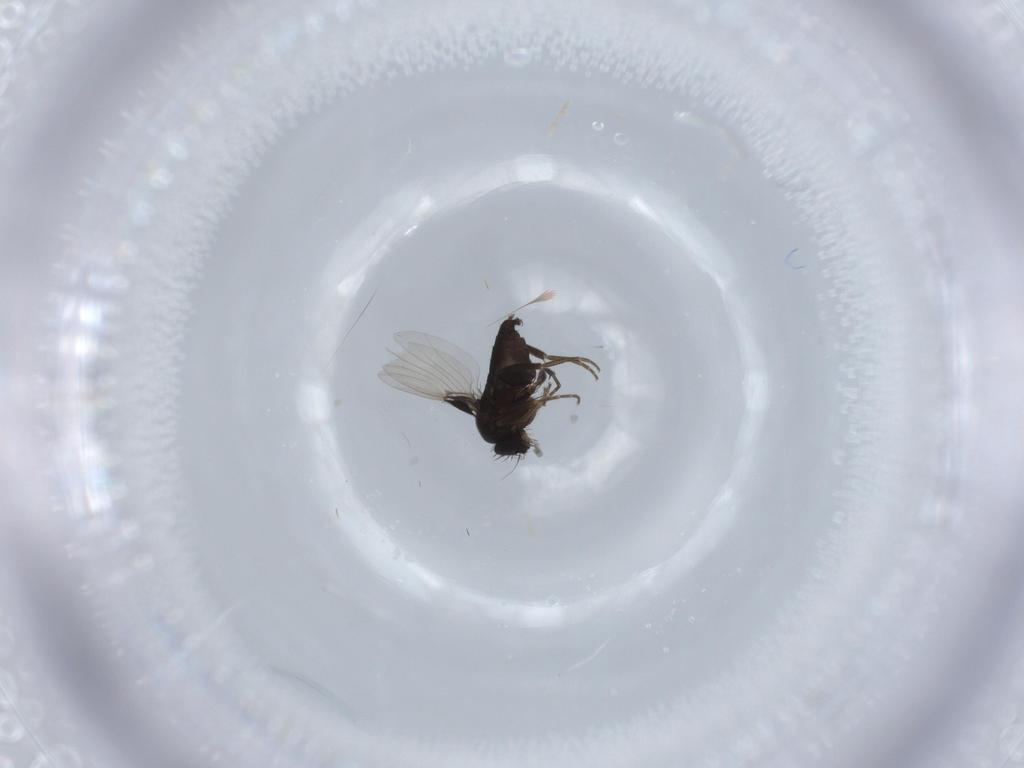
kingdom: Animalia
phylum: Arthropoda
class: Insecta
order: Diptera
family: Phoridae
